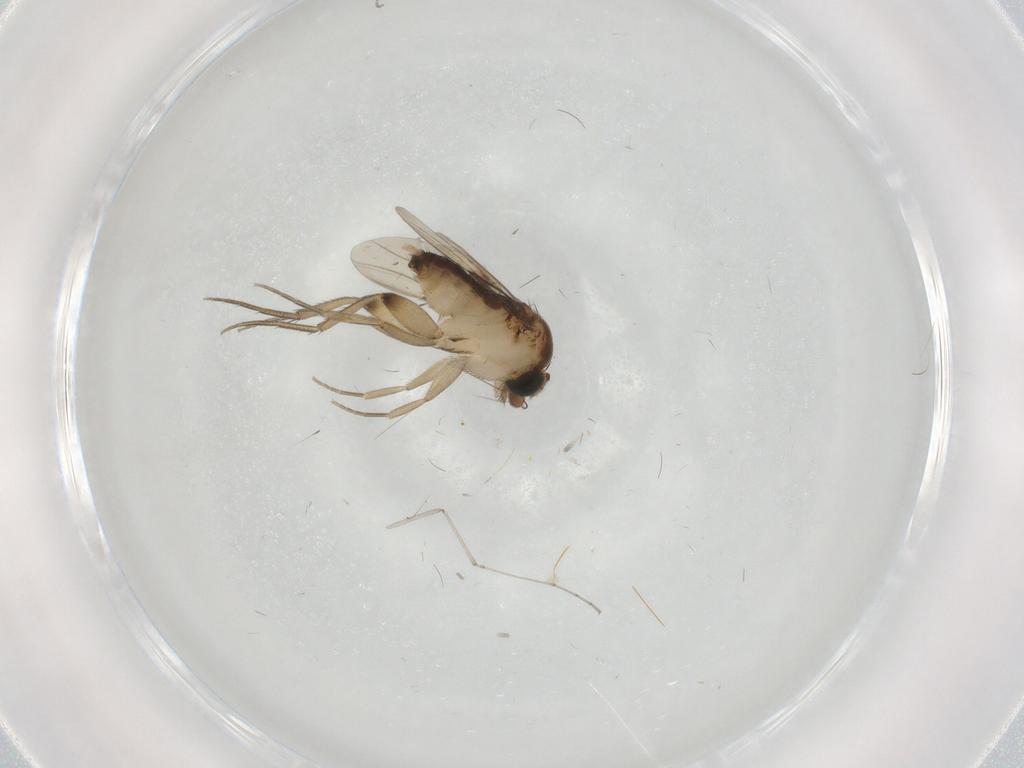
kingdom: Animalia
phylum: Arthropoda
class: Insecta
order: Diptera
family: Phoridae
